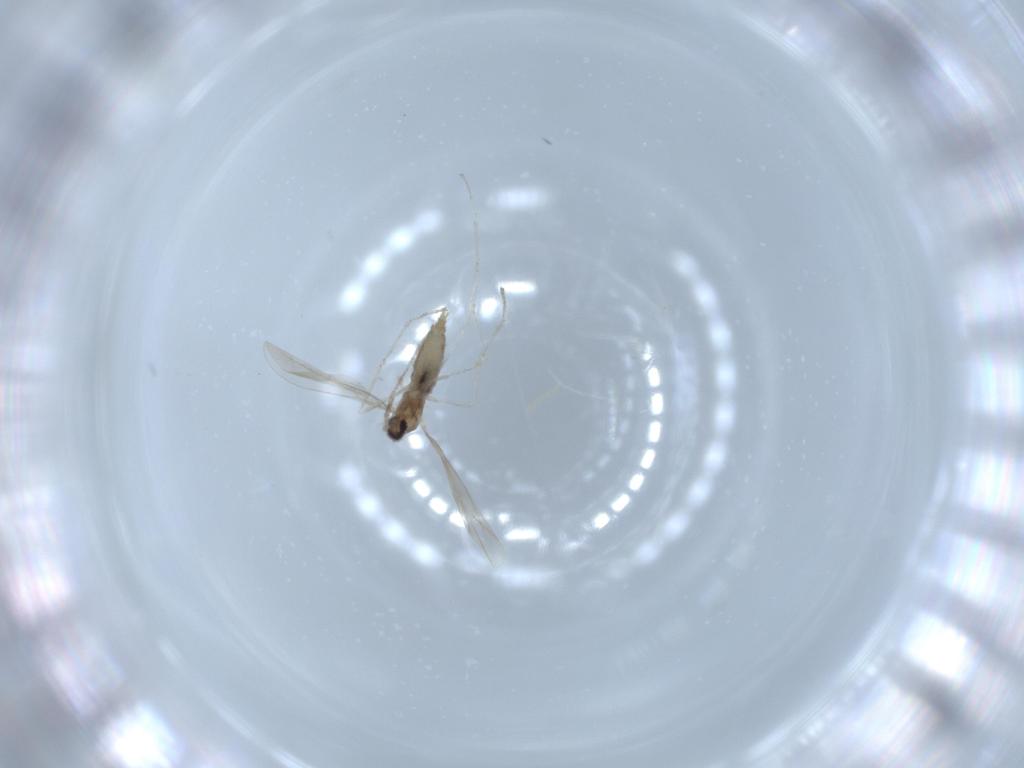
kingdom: Animalia
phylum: Arthropoda
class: Insecta
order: Diptera
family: Cecidomyiidae
